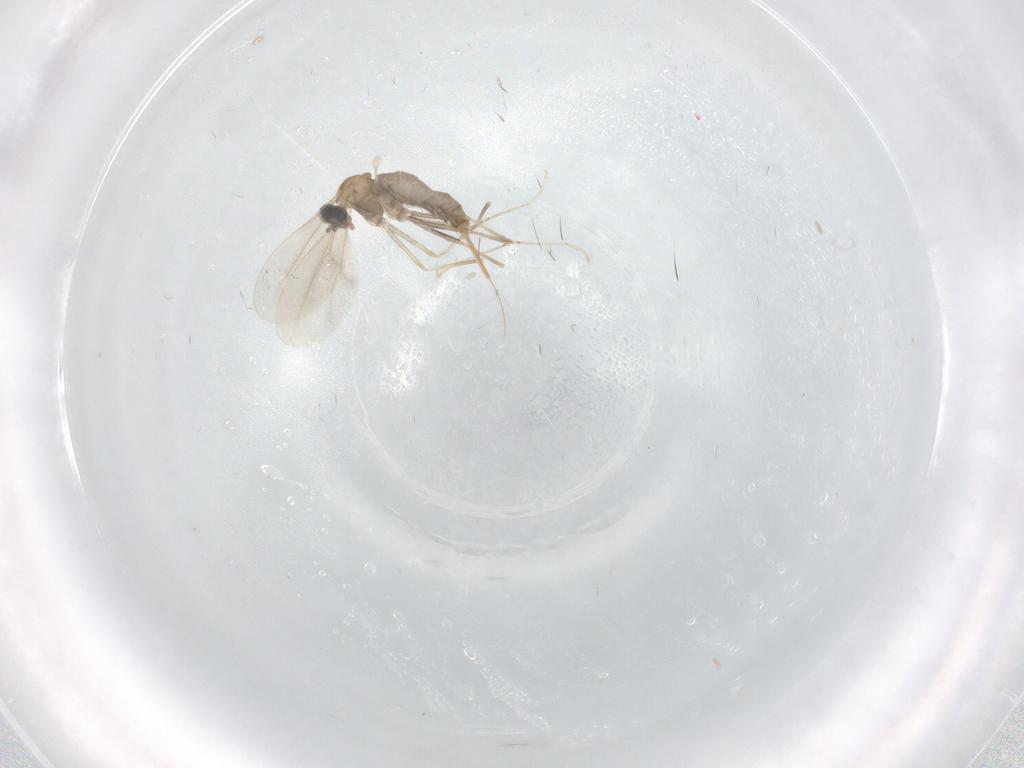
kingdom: Animalia
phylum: Arthropoda
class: Insecta
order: Diptera
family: Cecidomyiidae
